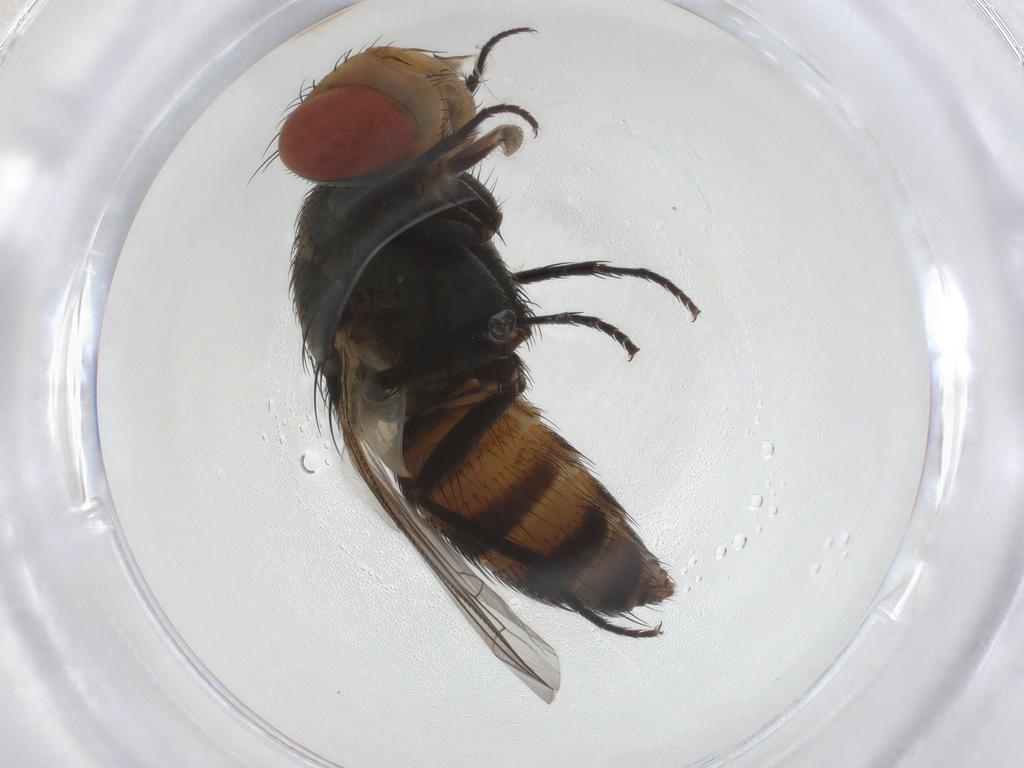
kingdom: Animalia
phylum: Arthropoda
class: Insecta
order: Diptera
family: Sarcophagidae
